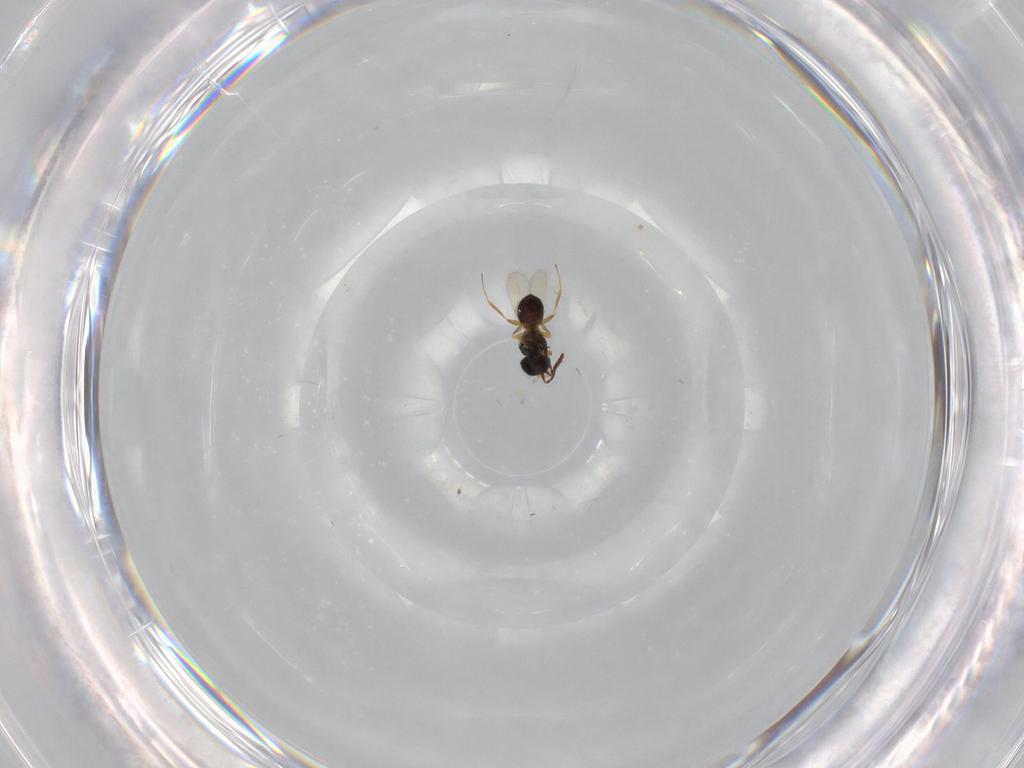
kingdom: Animalia
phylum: Arthropoda
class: Insecta
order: Hymenoptera
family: Scelionidae
